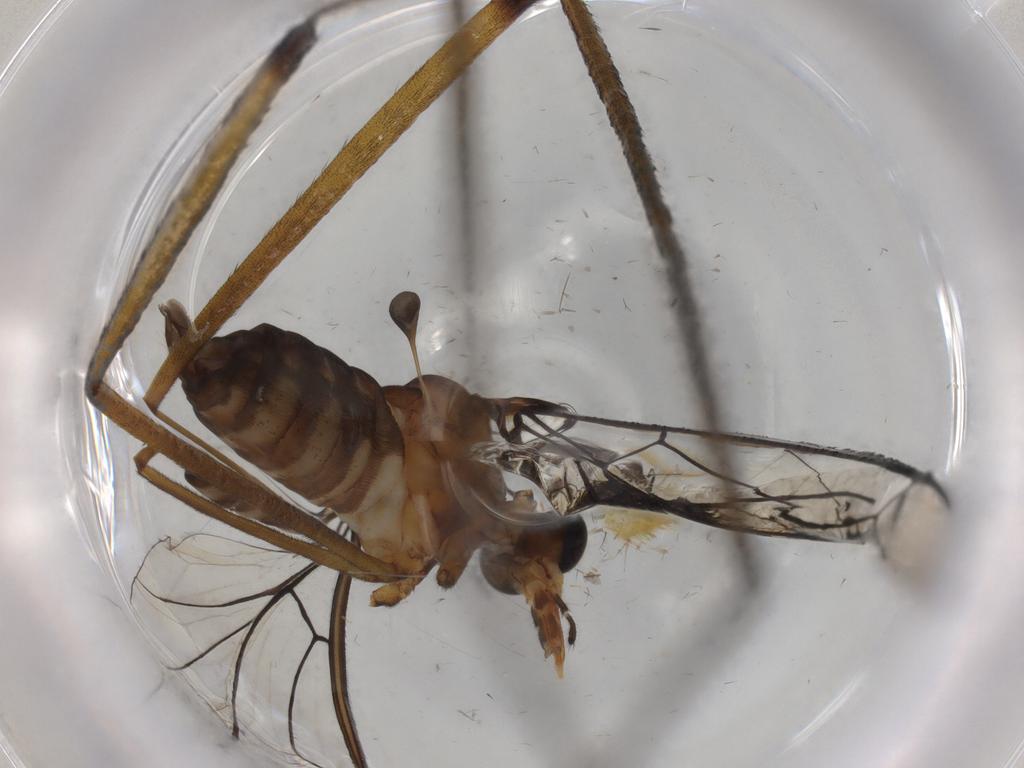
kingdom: Animalia
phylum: Arthropoda
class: Insecta
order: Diptera
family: Blephariceridae
